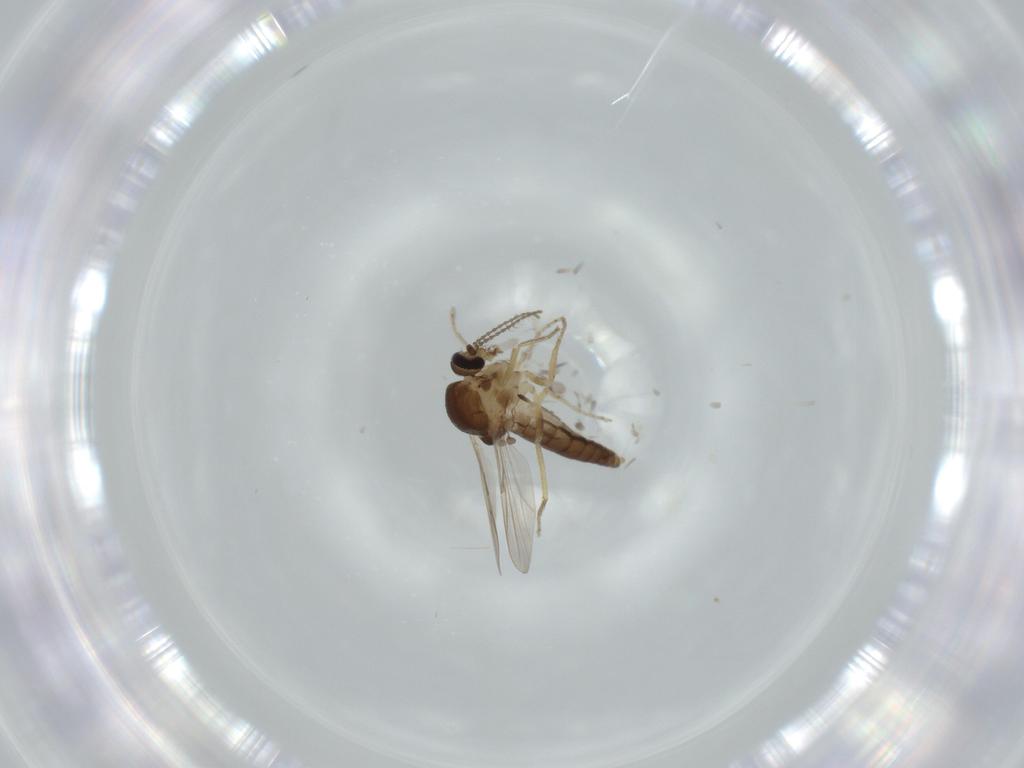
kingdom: Animalia
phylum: Arthropoda
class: Insecta
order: Diptera
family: Ceratopogonidae
